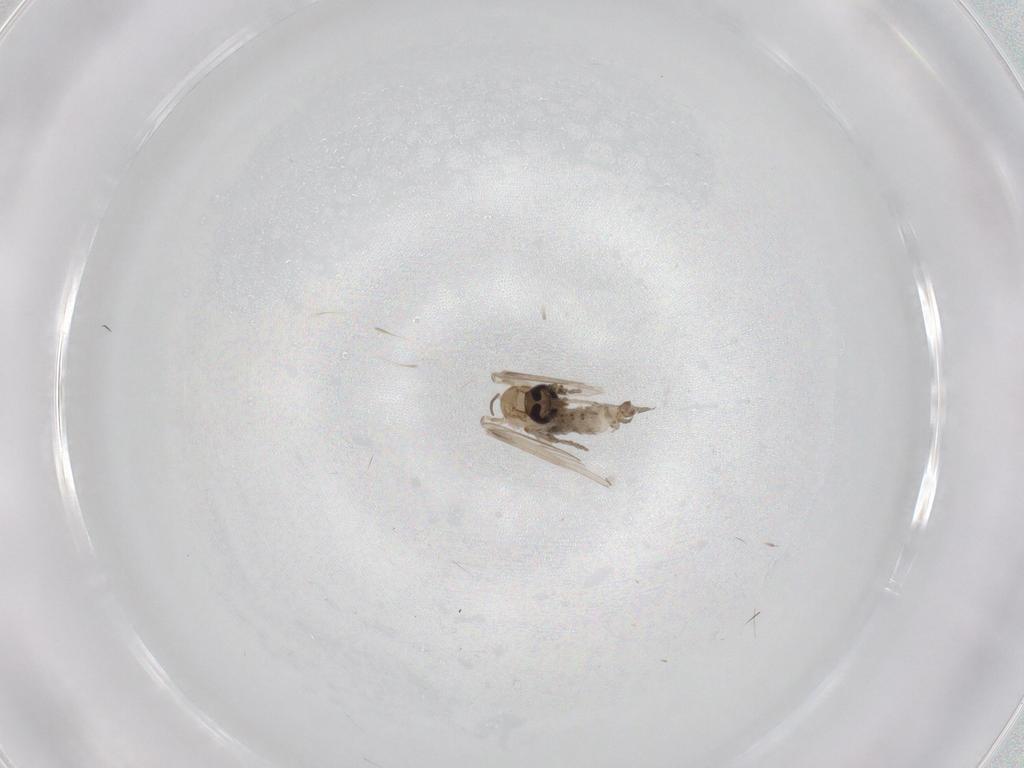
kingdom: Animalia
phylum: Arthropoda
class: Insecta
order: Diptera
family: Psychodidae
